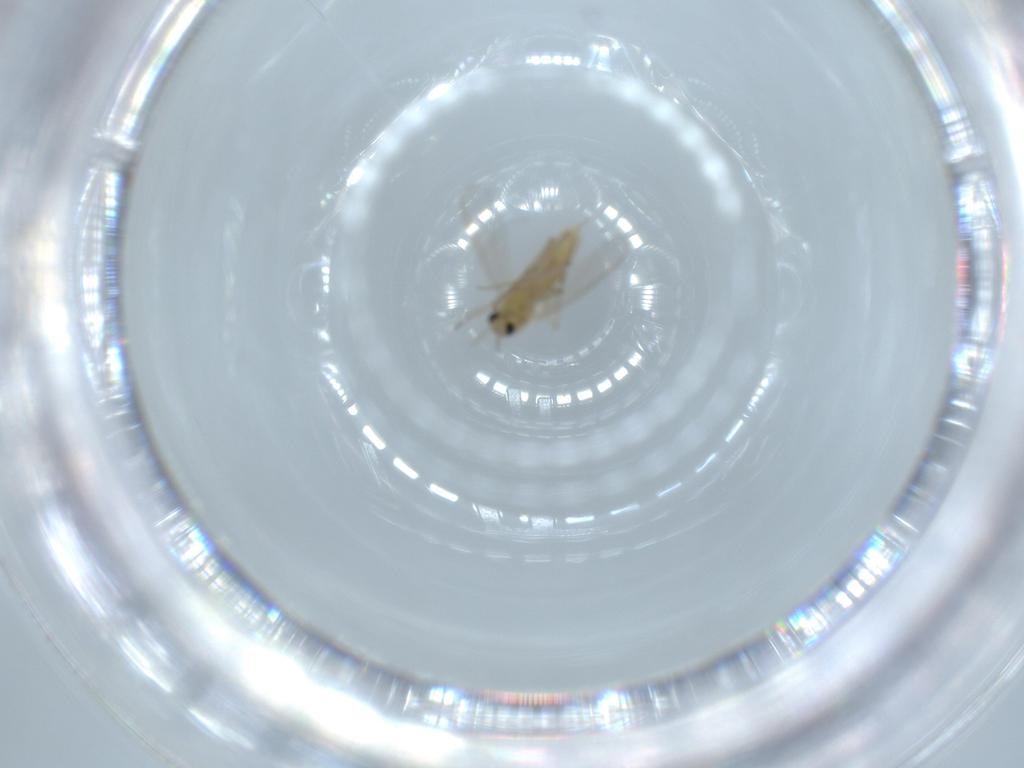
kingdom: Animalia
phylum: Arthropoda
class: Insecta
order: Diptera
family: Chironomidae
